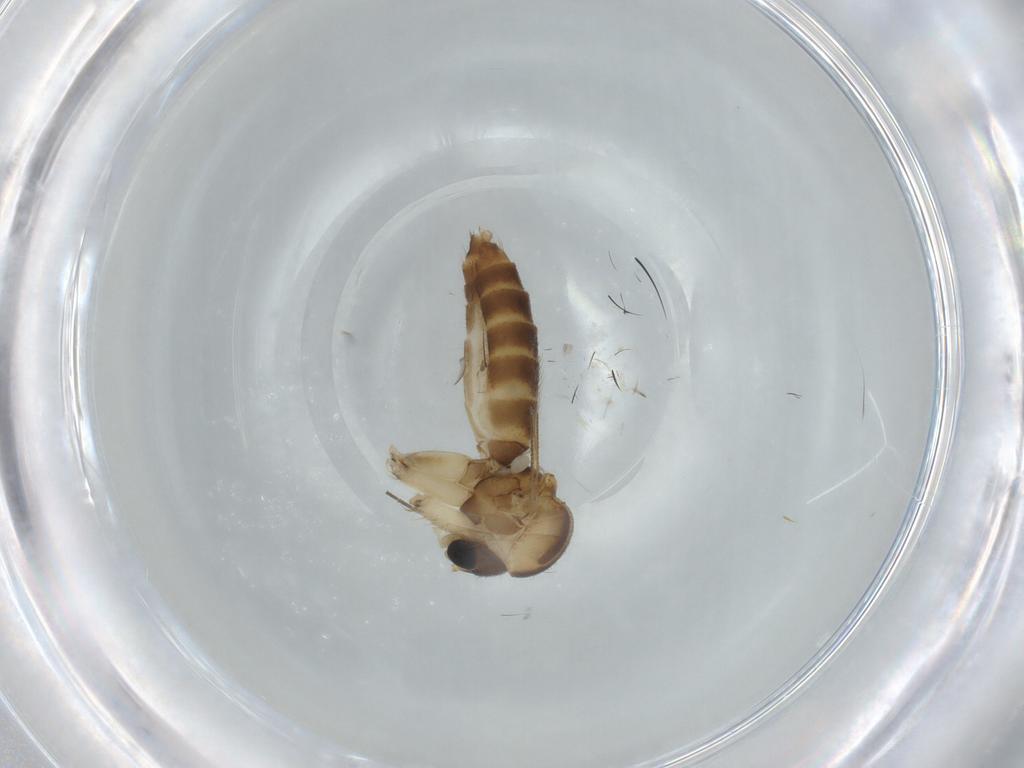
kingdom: Animalia
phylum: Arthropoda
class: Insecta
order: Diptera
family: Mycetophilidae
